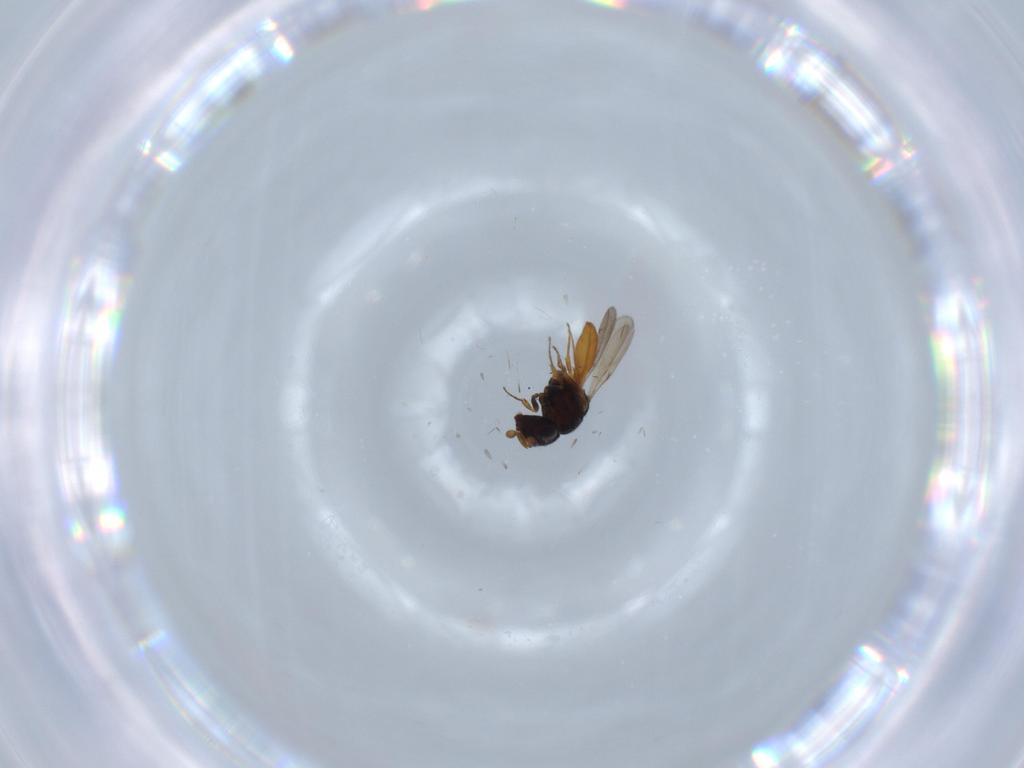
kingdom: Animalia
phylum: Arthropoda
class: Insecta
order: Hymenoptera
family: Scelionidae
